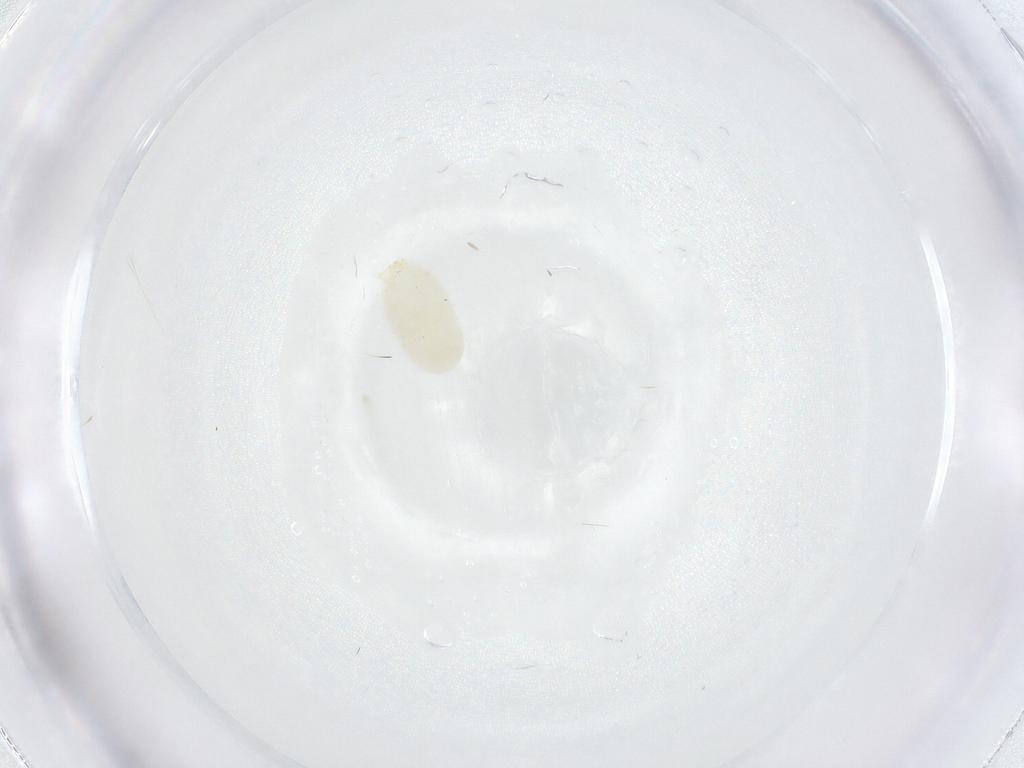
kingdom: Animalia
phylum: Arthropoda
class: Arachnida
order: Trombidiformes
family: Erythraeidae
